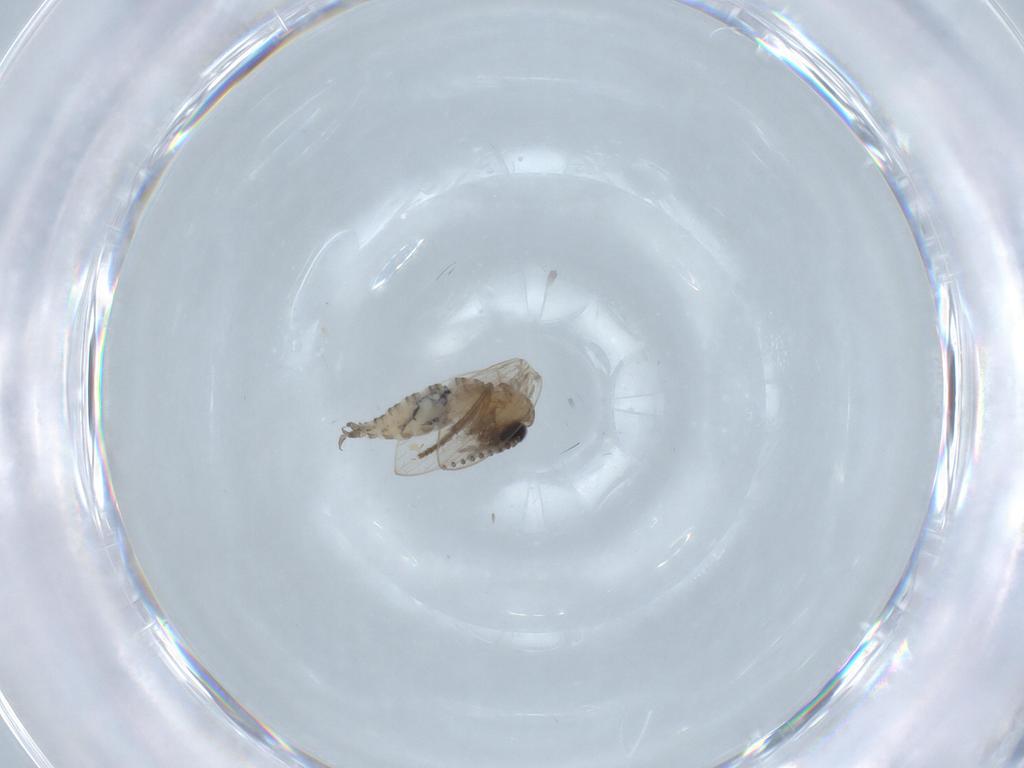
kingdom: Animalia
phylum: Arthropoda
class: Insecta
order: Diptera
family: Psychodidae
